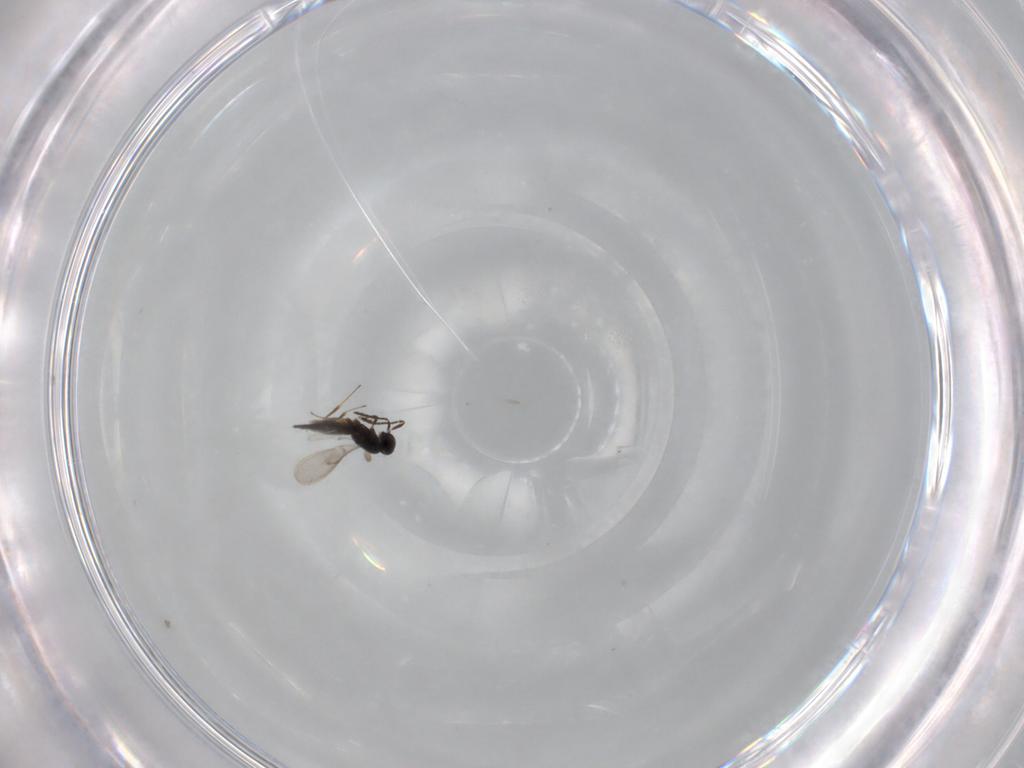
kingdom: Animalia
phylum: Arthropoda
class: Insecta
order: Hymenoptera
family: Scelionidae
